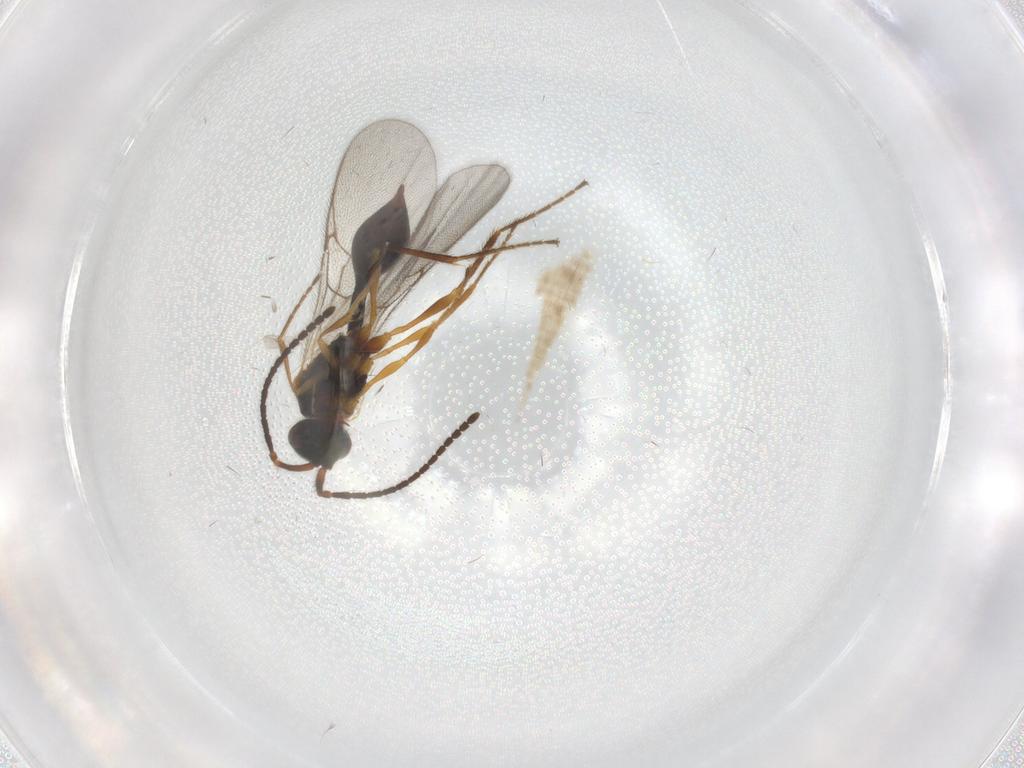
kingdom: Animalia
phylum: Arthropoda
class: Insecta
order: Hymenoptera
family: Diapriidae
